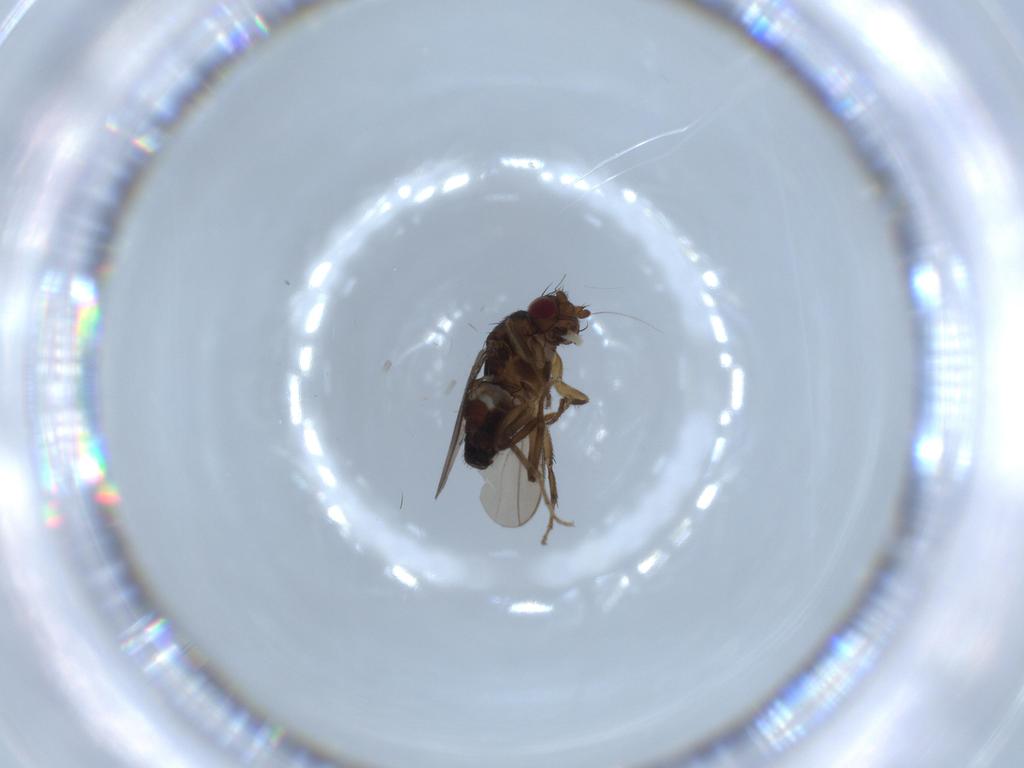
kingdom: Animalia
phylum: Arthropoda
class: Insecta
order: Diptera
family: Sphaeroceridae
